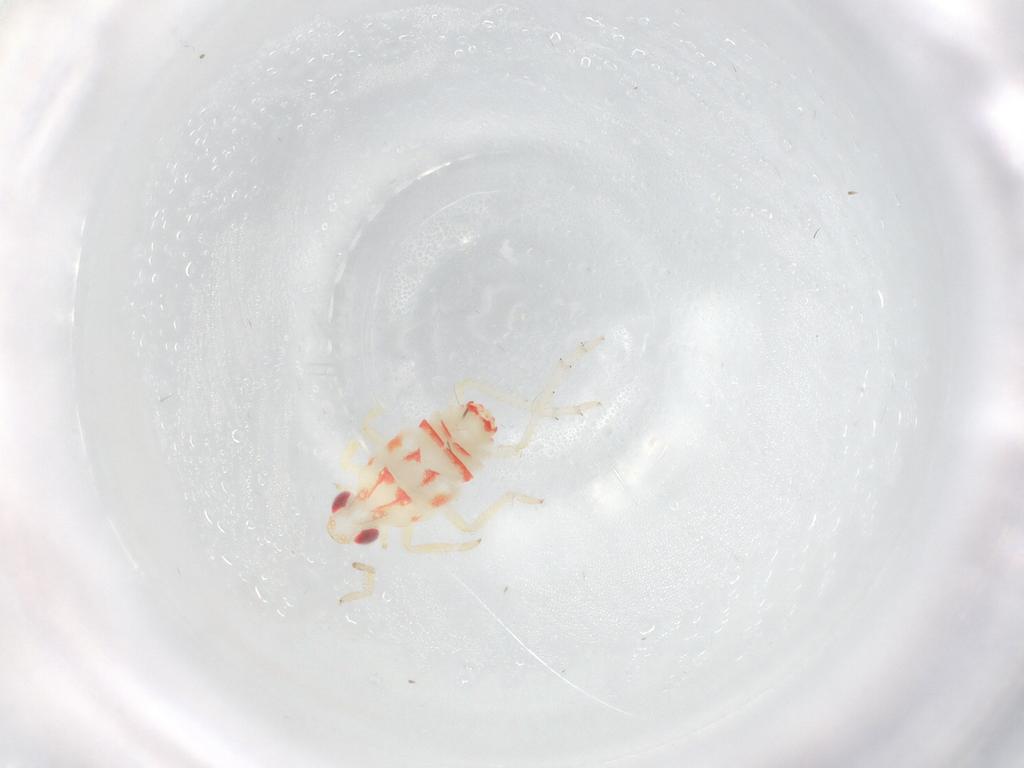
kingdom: Animalia
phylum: Arthropoda
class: Insecta
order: Hemiptera
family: Tropiduchidae
